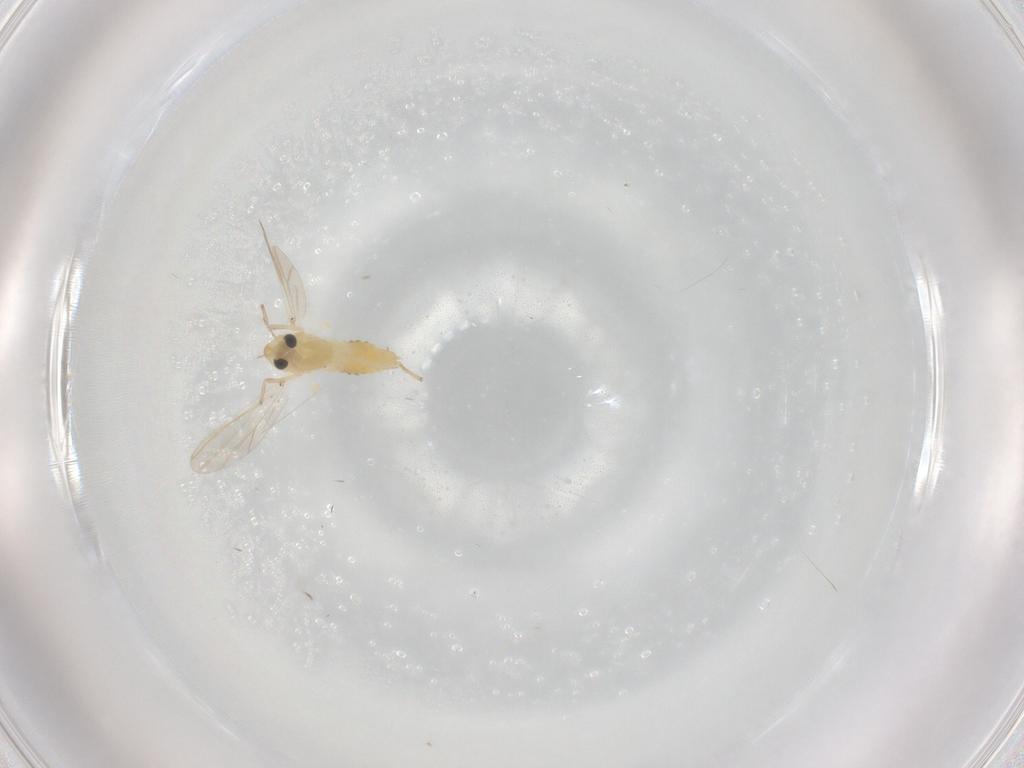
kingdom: Animalia
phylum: Arthropoda
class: Insecta
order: Diptera
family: Chironomidae
